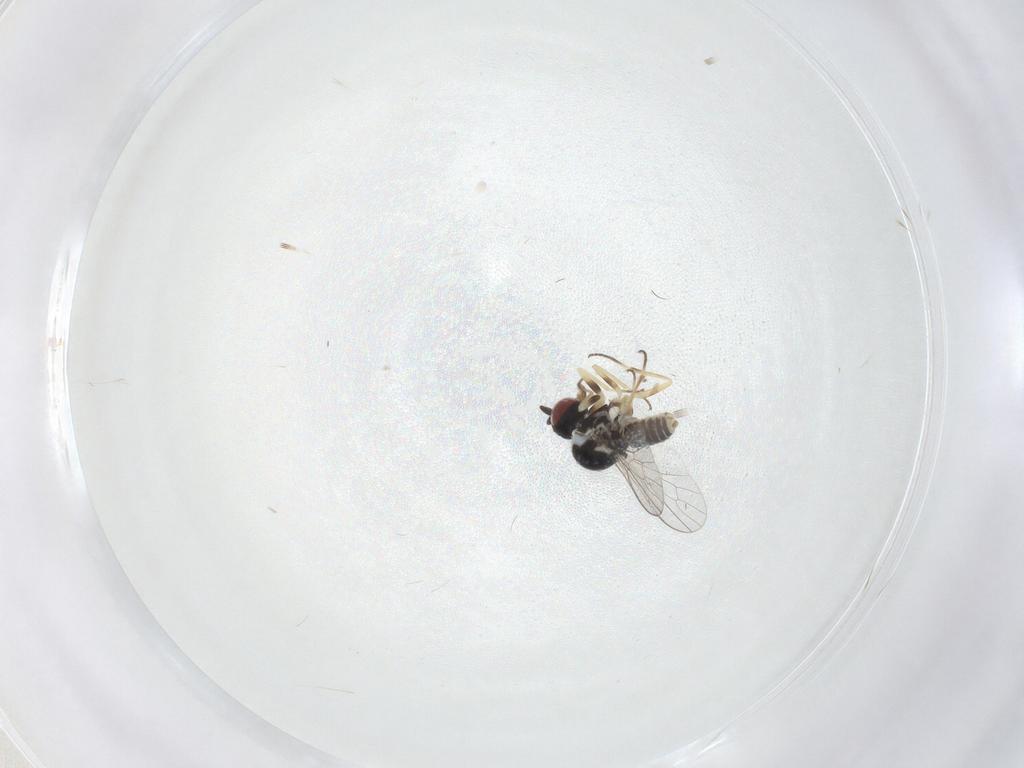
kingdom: Animalia
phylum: Arthropoda
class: Insecta
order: Diptera
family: Bombyliidae
